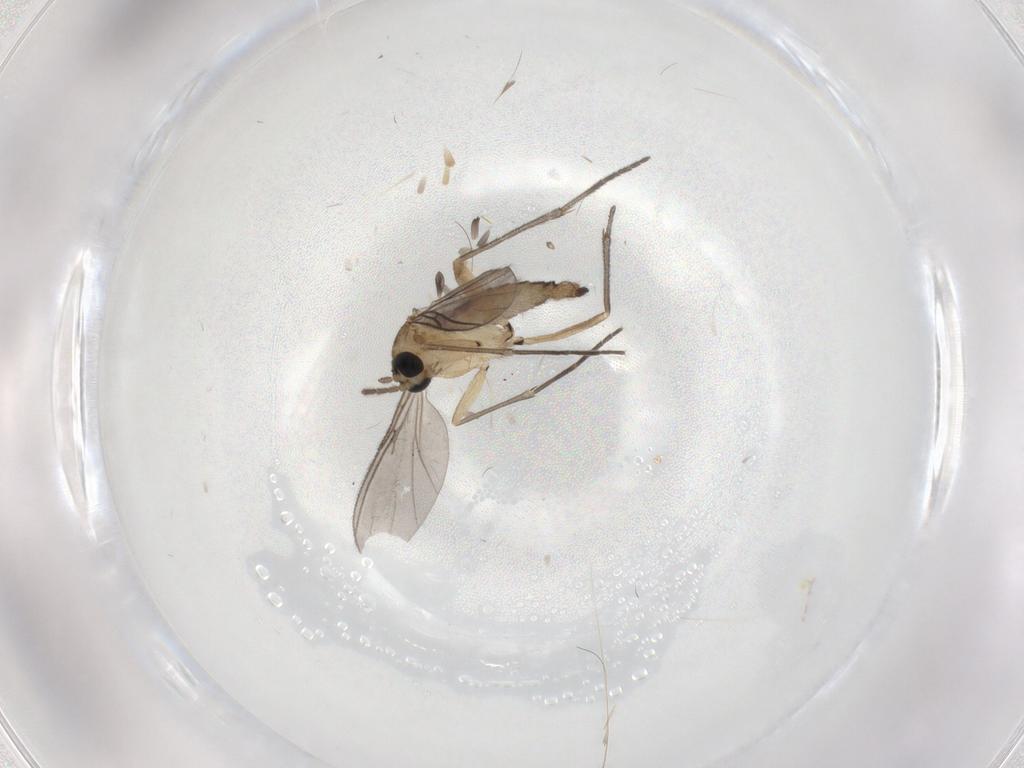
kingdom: Animalia
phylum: Arthropoda
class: Insecta
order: Diptera
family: Sciaridae
